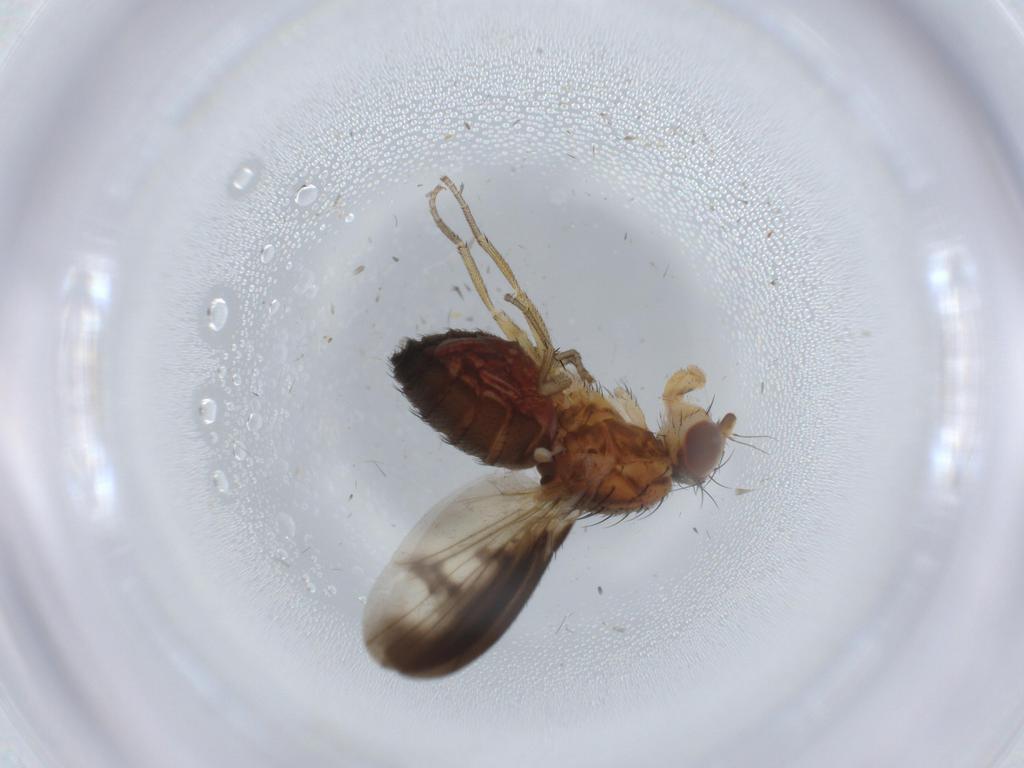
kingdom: Animalia
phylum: Arthropoda
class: Insecta
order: Diptera
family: Heleomyzidae
